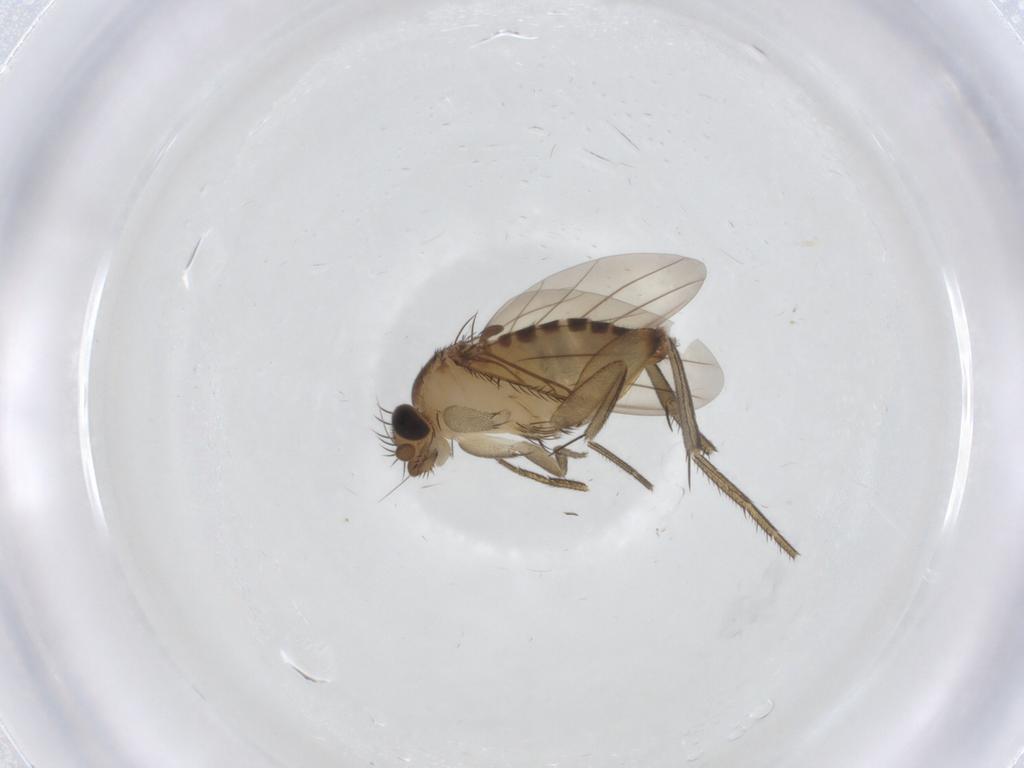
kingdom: Animalia
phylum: Arthropoda
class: Insecta
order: Diptera
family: Phoridae
